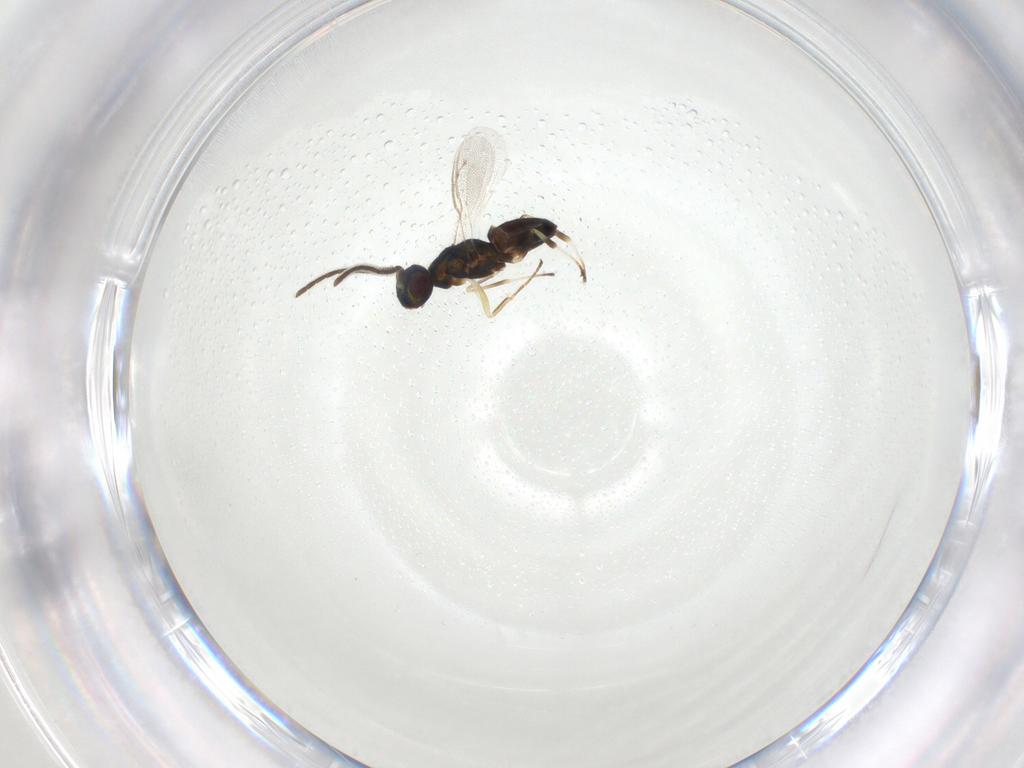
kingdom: Animalia
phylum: Arthropoda
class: Insecta
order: Hymenoptera
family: Eupelmidae
